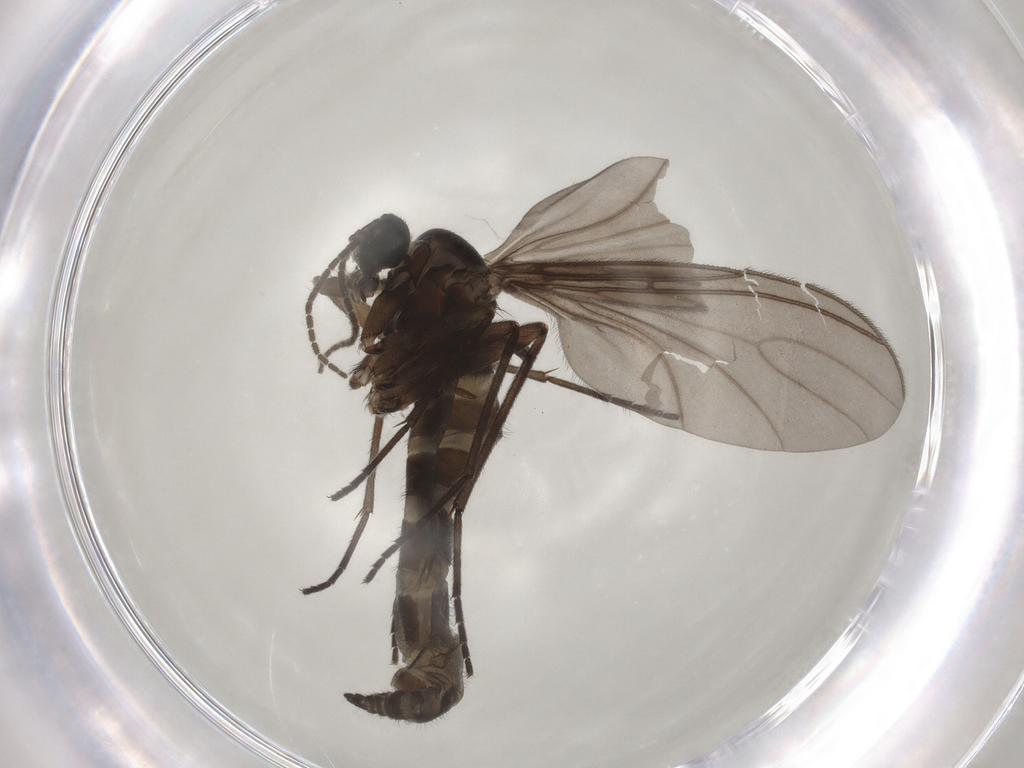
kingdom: Animalia
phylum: Arthropoda
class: Insecta
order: Diptera
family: Sciaridae
